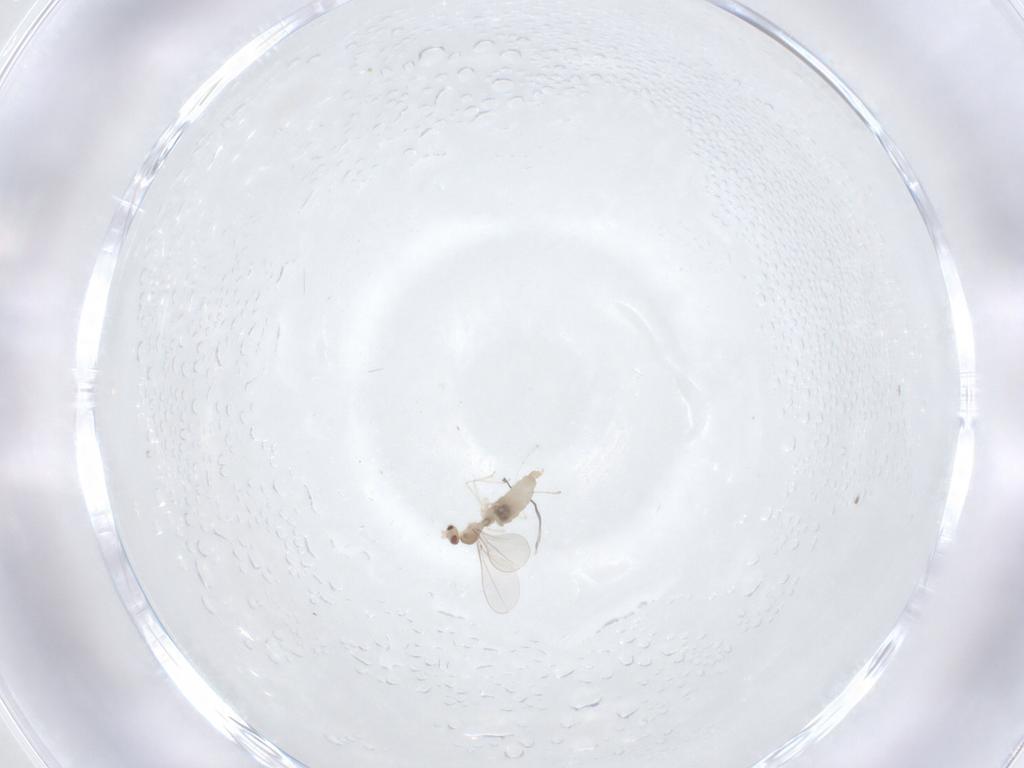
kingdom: Animalia
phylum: Arthropoda
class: Insecta
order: Diptera
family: Cecidomyiidae
